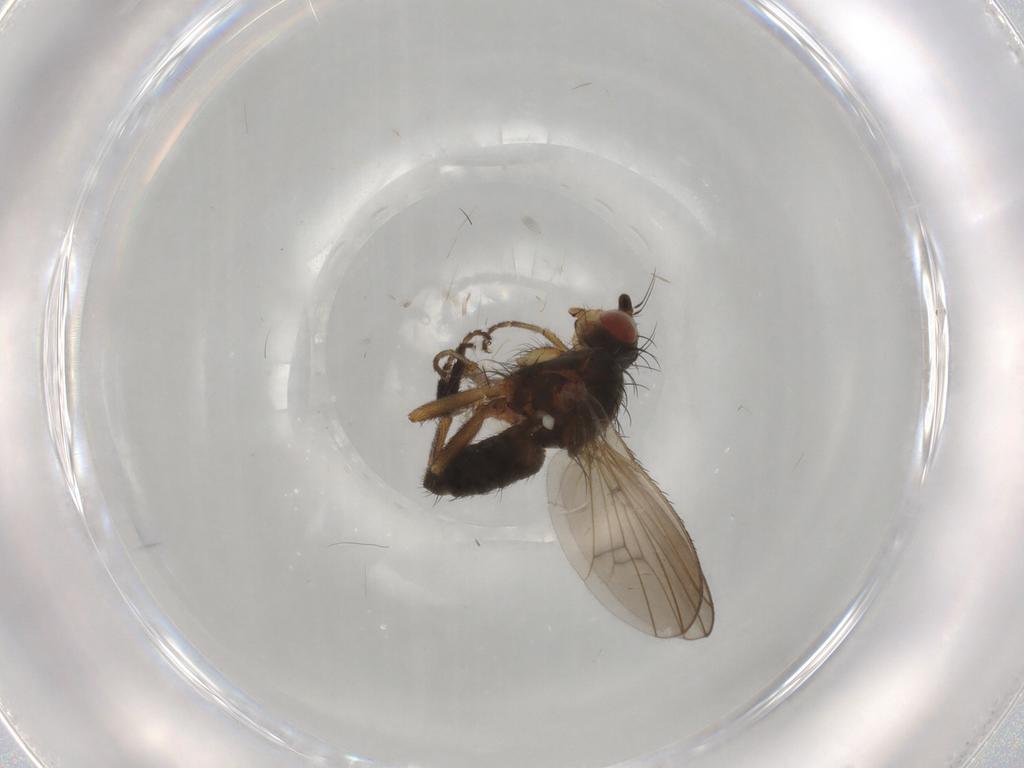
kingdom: Animalia
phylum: Arthropoda
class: Insecta
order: Diptera
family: Heleomyzidae
